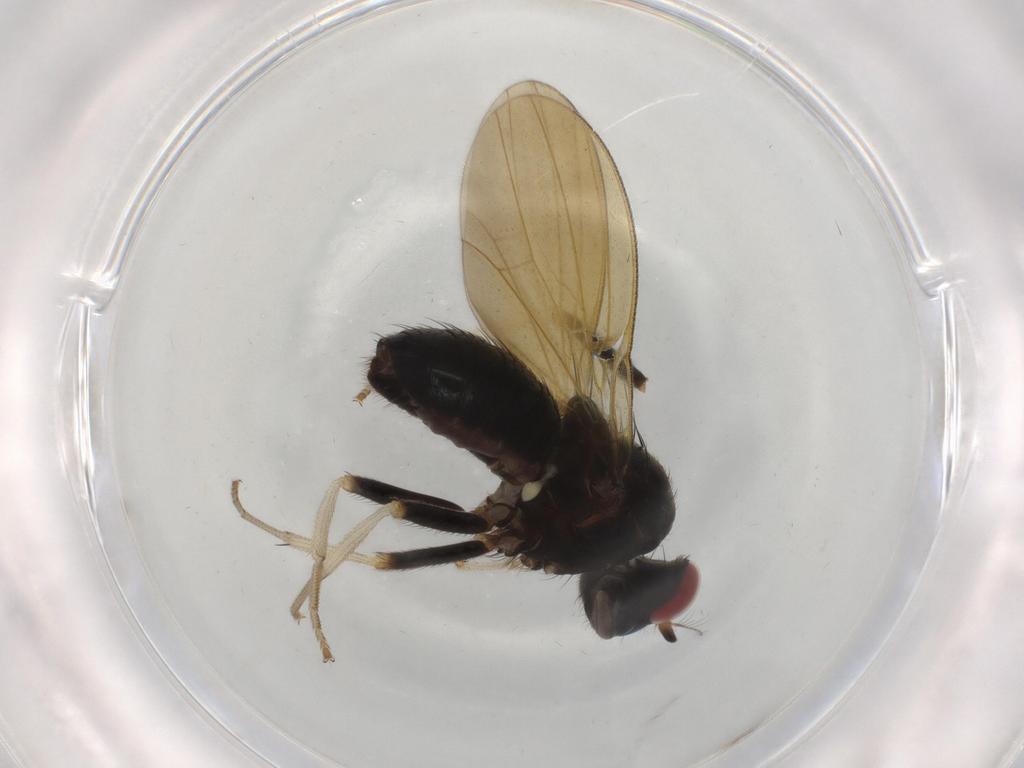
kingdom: Animalia
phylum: Arthropoda
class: Insecta
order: Diptera
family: Cecidomyiidae
